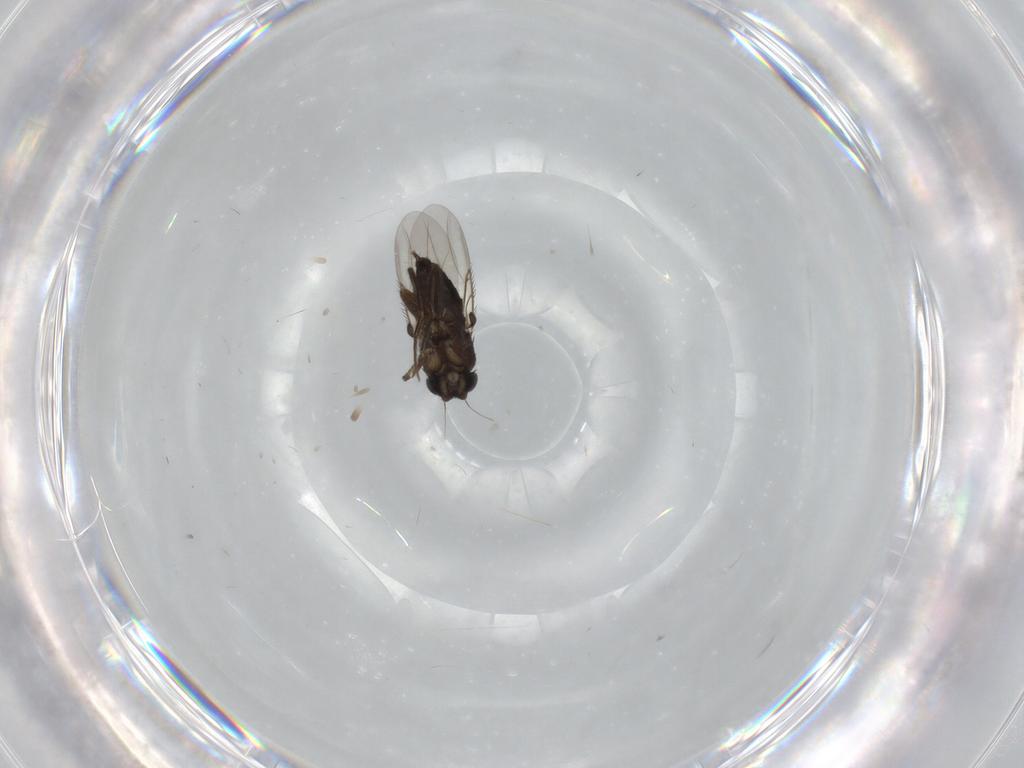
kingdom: Animalia
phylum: Arthropoda
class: Insecta
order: Diptera
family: Phoridae
